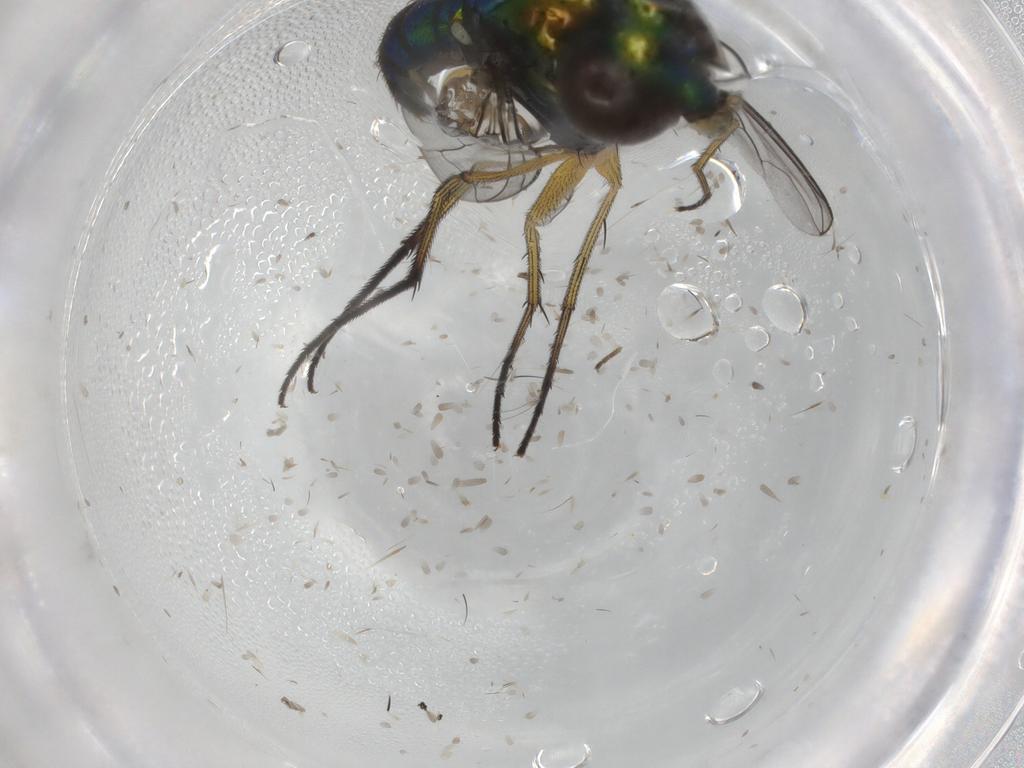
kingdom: Animalia
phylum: Arthropoda
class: Insecta
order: Diptera
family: Dolichopodidae
